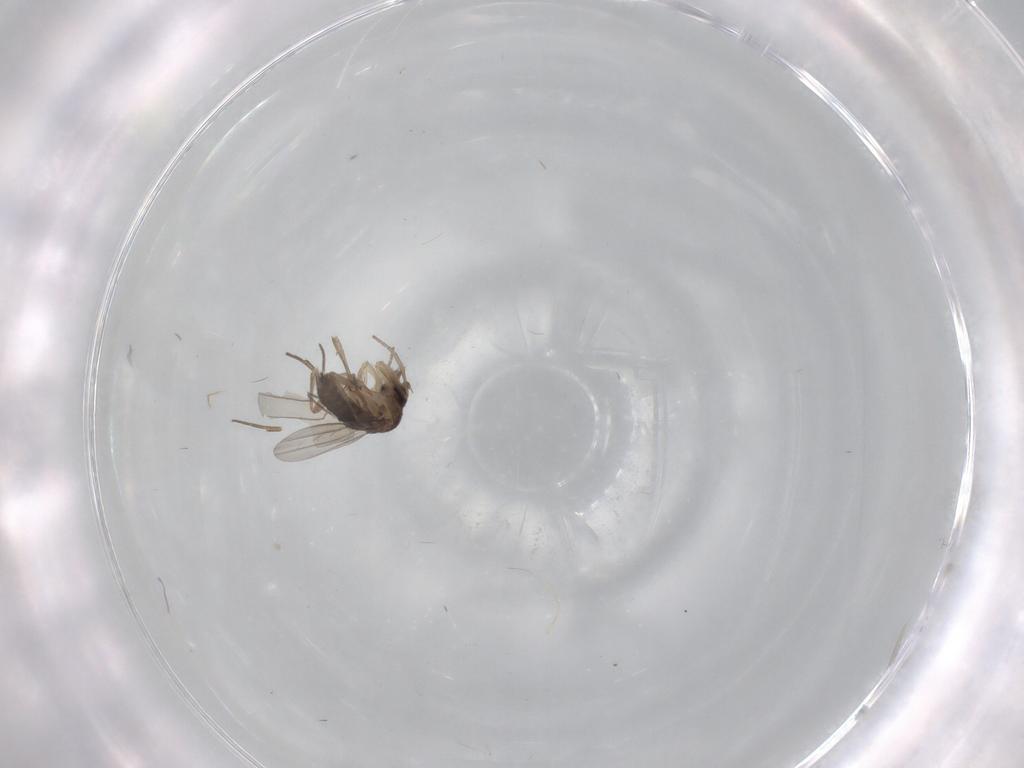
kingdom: Animalia
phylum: Arthropoda
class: Insecta
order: Diptera
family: Phoridae
